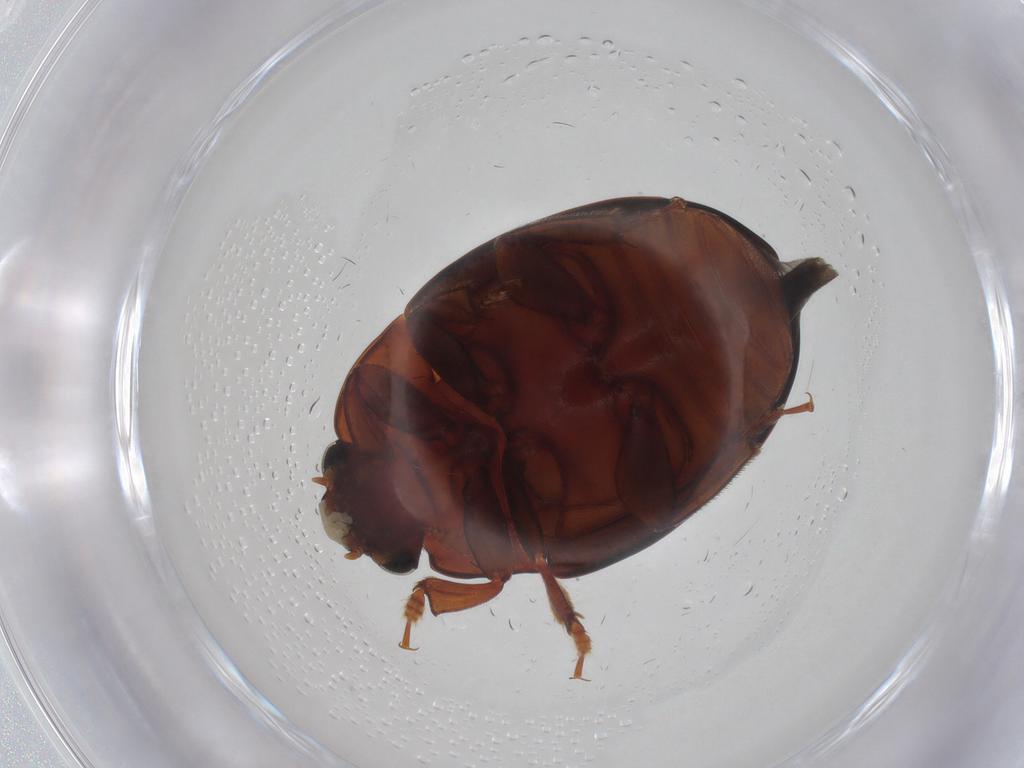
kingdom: Animalia
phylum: Arthropoda
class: Insecta
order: Coleoptera
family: Nitidulidae
